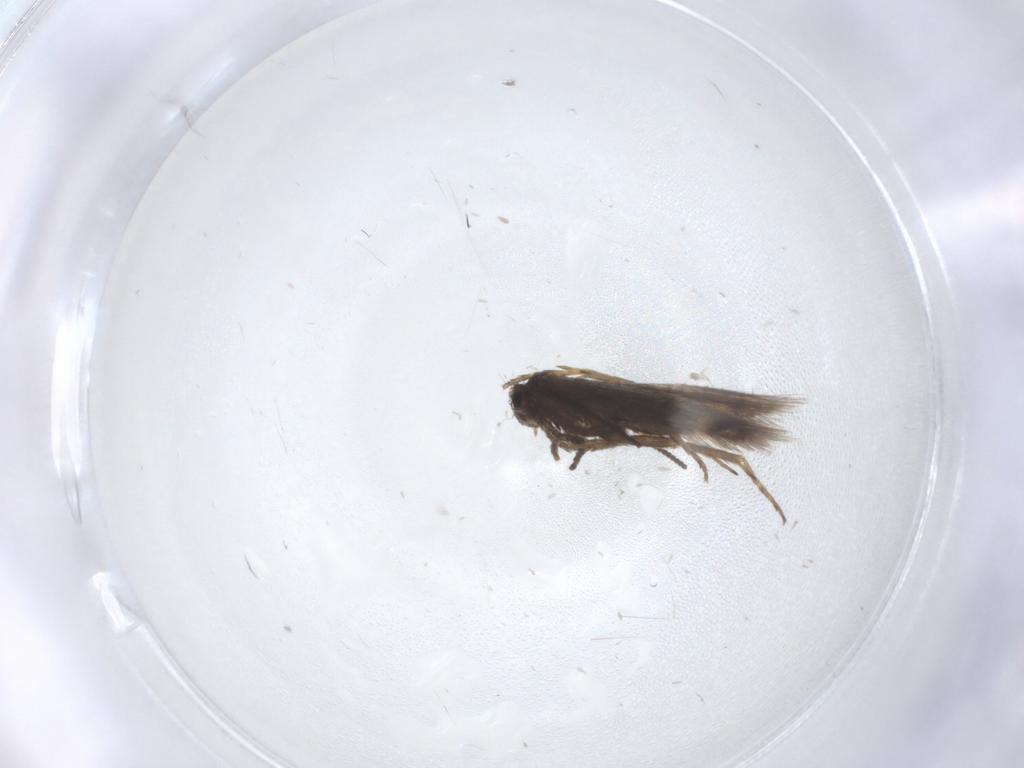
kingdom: Animalia
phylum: Arthropoda
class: Insecta
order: Lepidoptera
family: Nepticulidae
